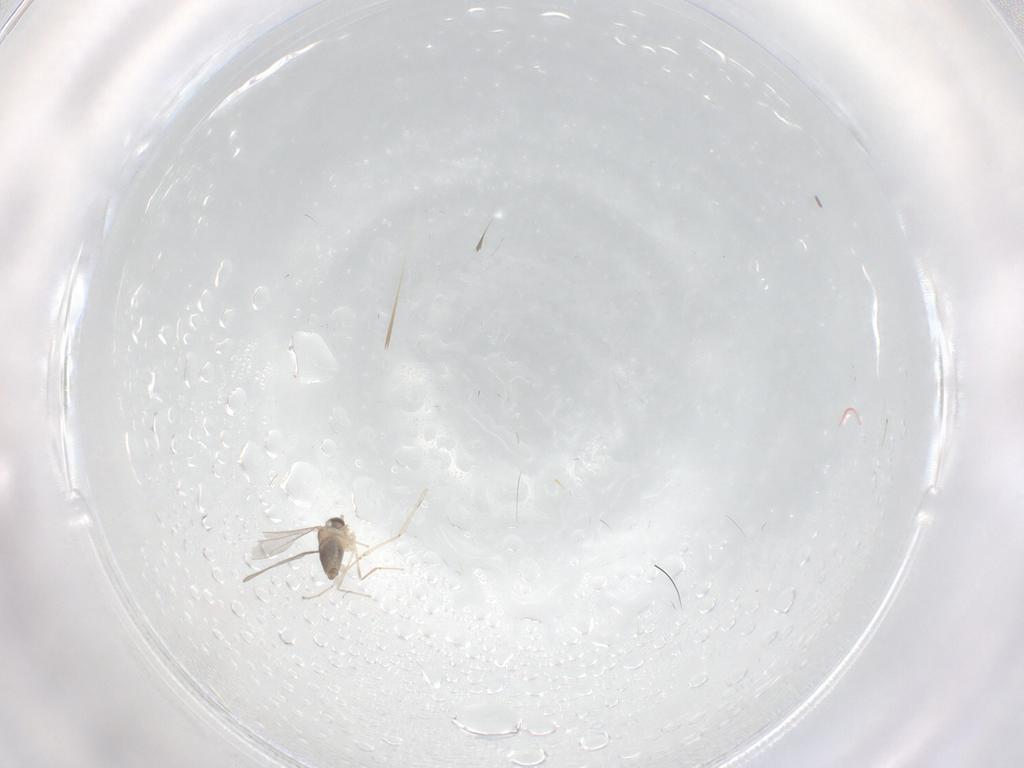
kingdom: Animalia
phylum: Arthropoda
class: Insecta
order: Diptera
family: Cecidomyiidae
